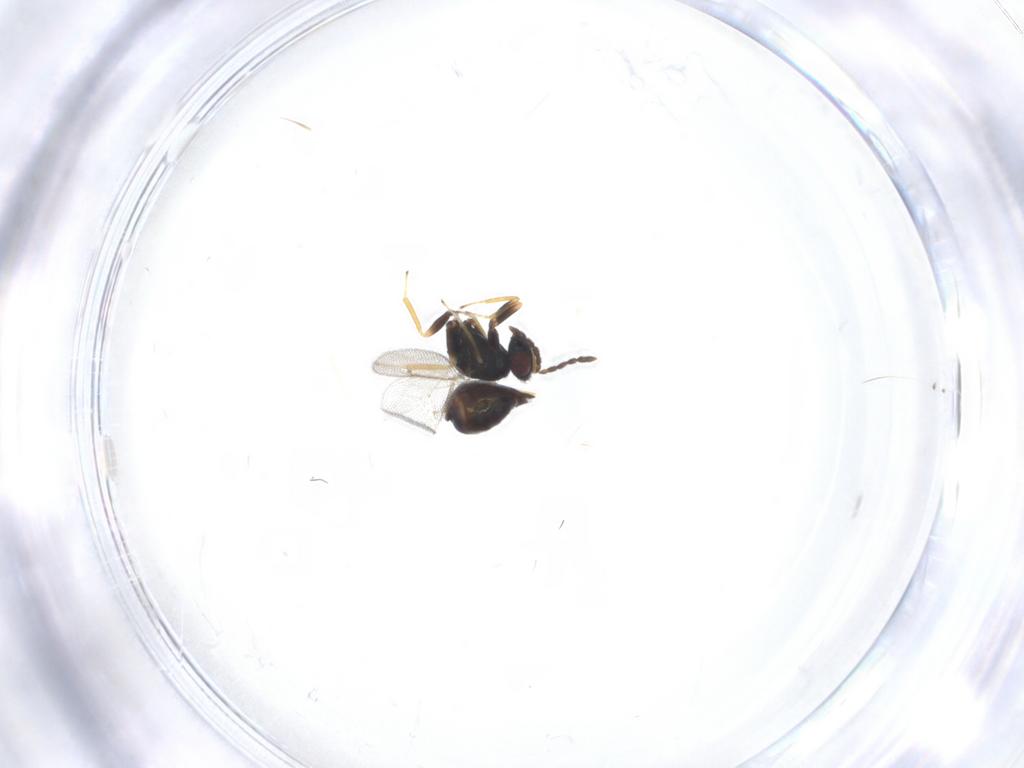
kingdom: Animalia
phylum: Arthropoda
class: Insecta
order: Hymenoptera
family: Eulophidae
